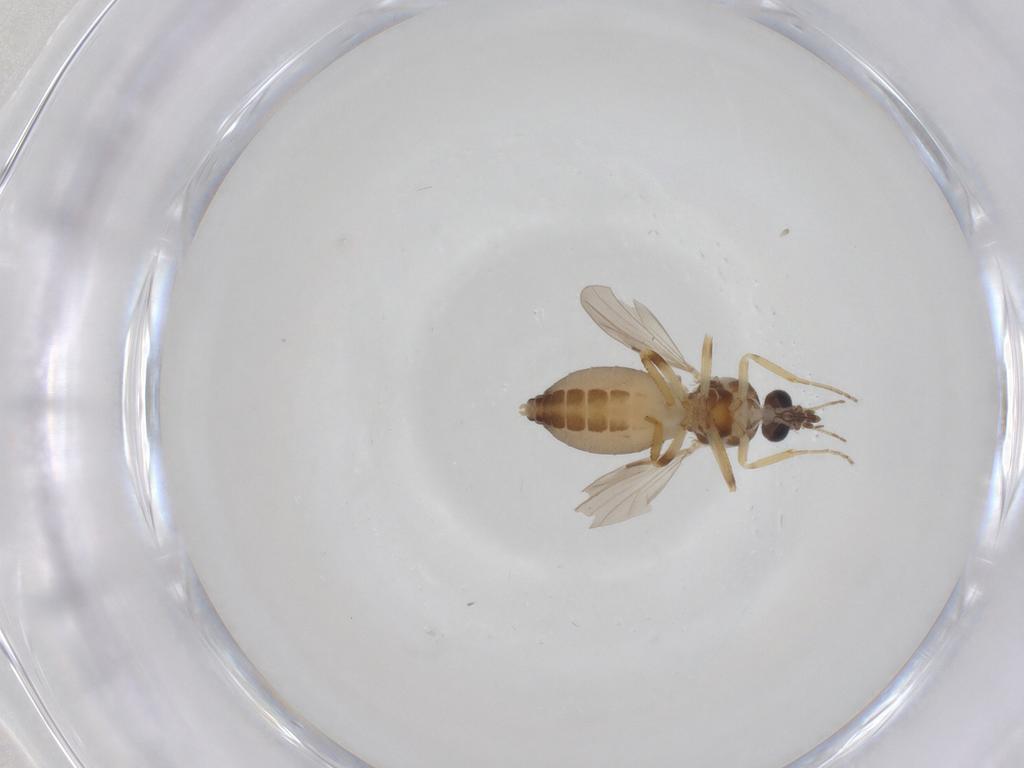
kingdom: Animalia
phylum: Arthropoda
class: Insecta
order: Diptera
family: Ceratopogonidae
